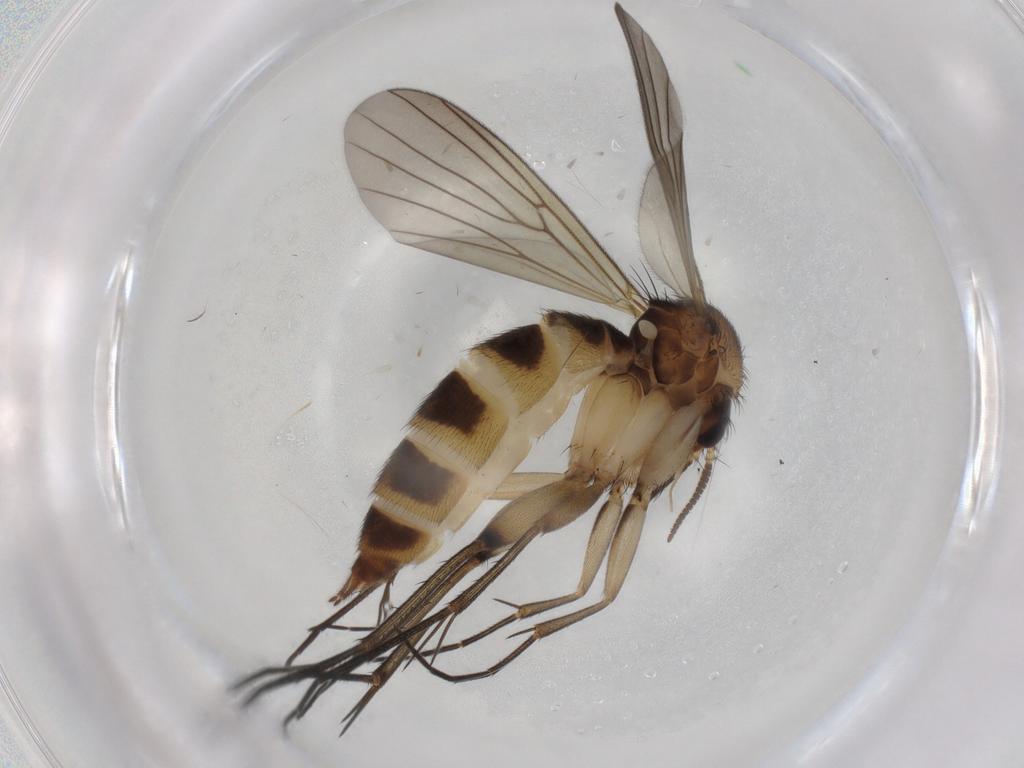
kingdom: Animalia
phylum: Arthropoda
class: Insecta
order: Diptera
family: Mycetophilidae
